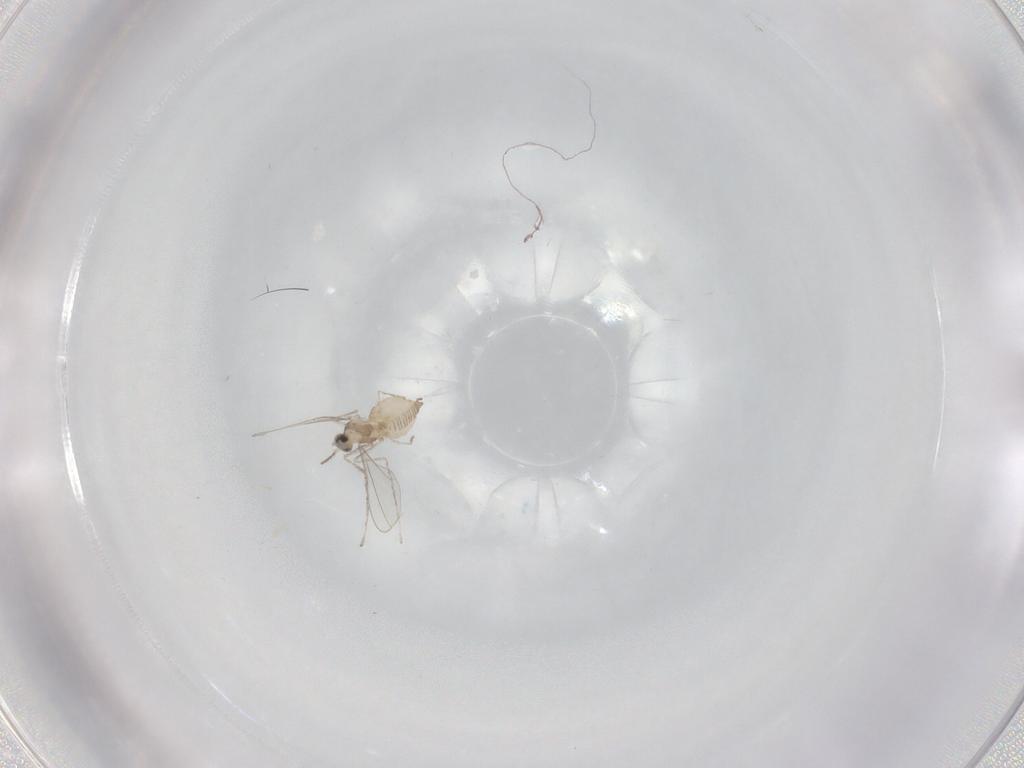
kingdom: Animalia
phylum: Arthropoda
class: Insecta
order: Diptera
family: Cecidomyiidae
